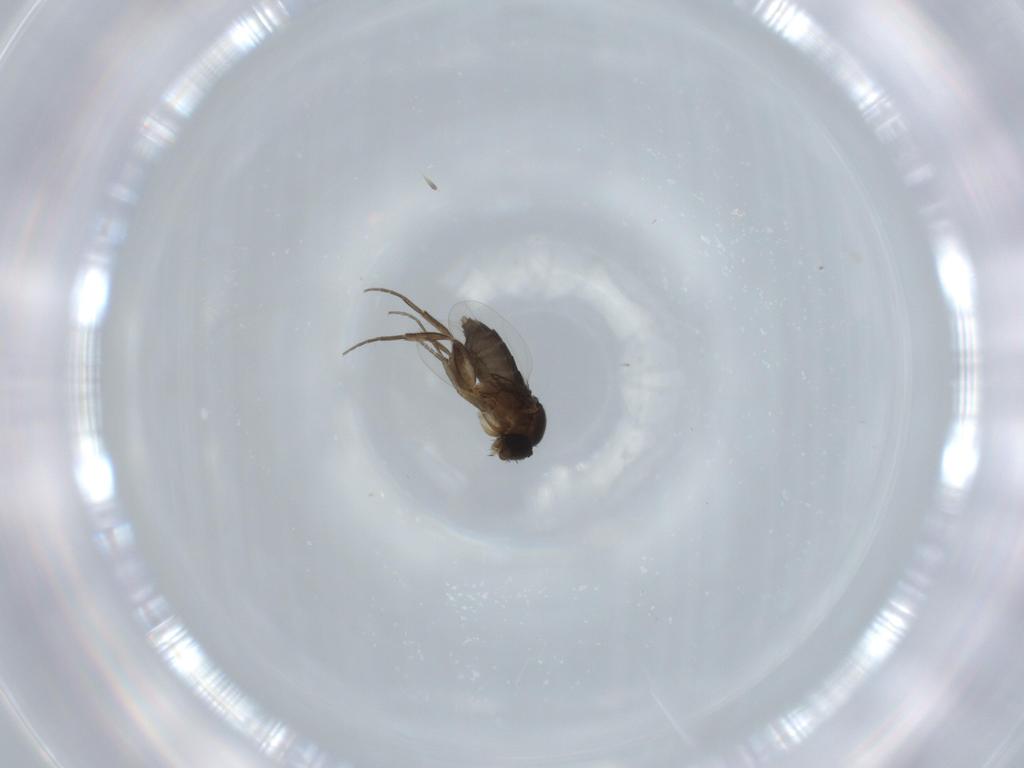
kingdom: Animalia
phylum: Arthropoda
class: Insecta
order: Diptera
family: Phoridae
